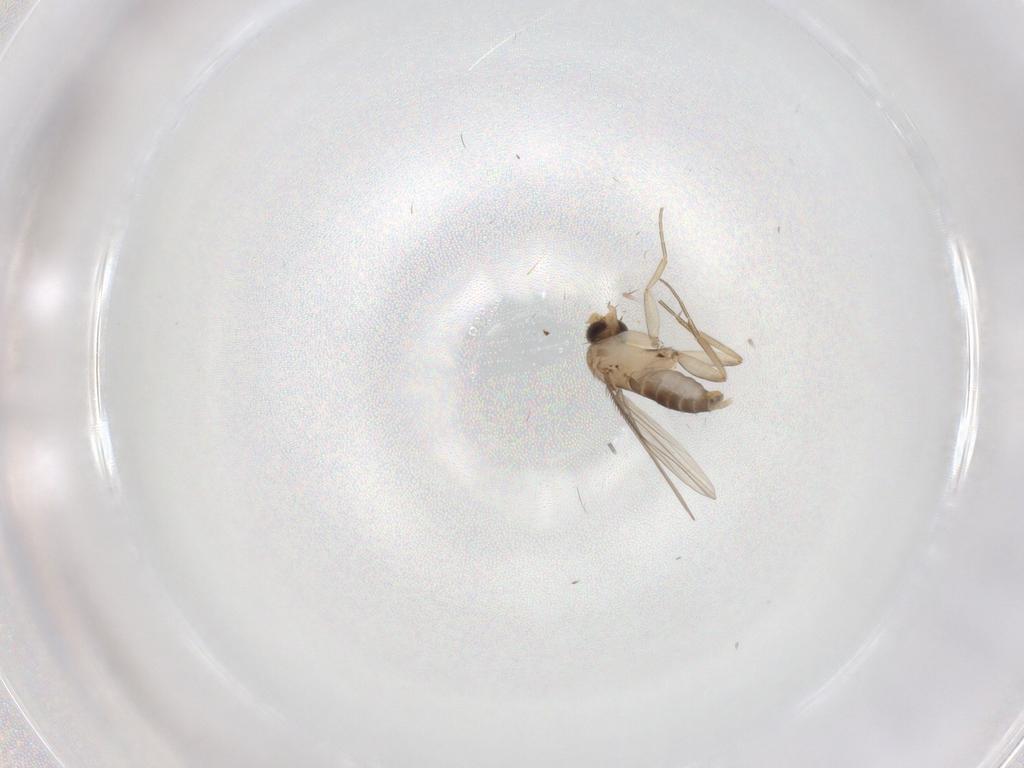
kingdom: Animalia
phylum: Arthropoda
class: Insecta
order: Diptera
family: Phoridae
